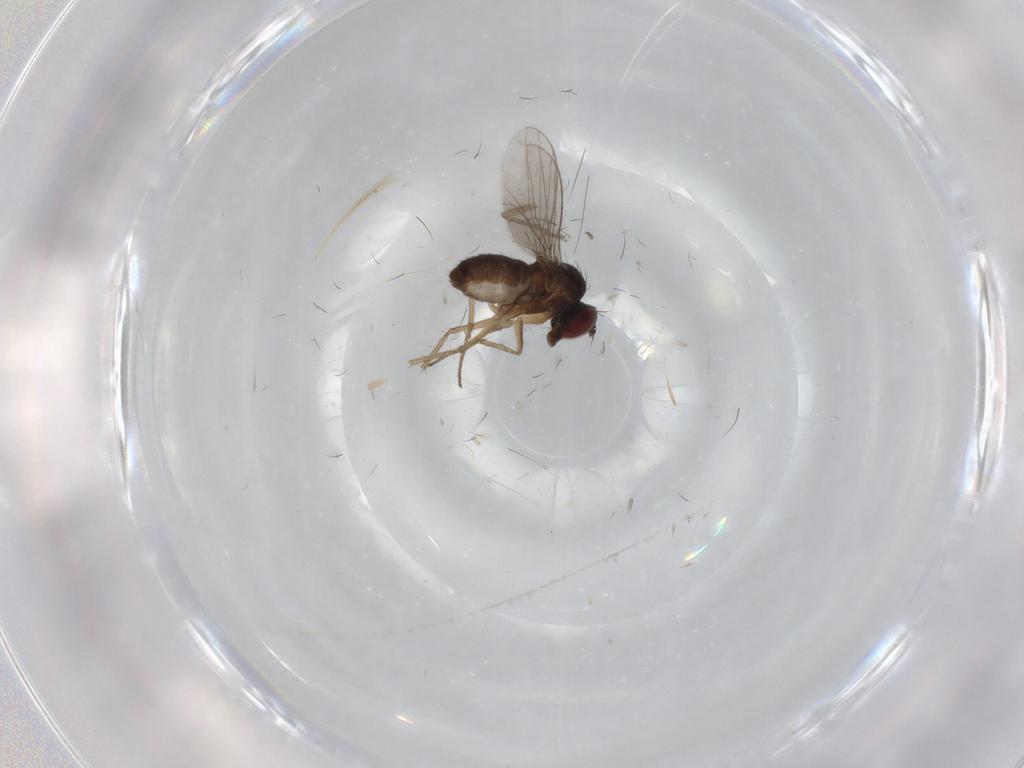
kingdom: Animalia
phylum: Arthropoda
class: Insecta
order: Diptera
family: Dolichopodidae
